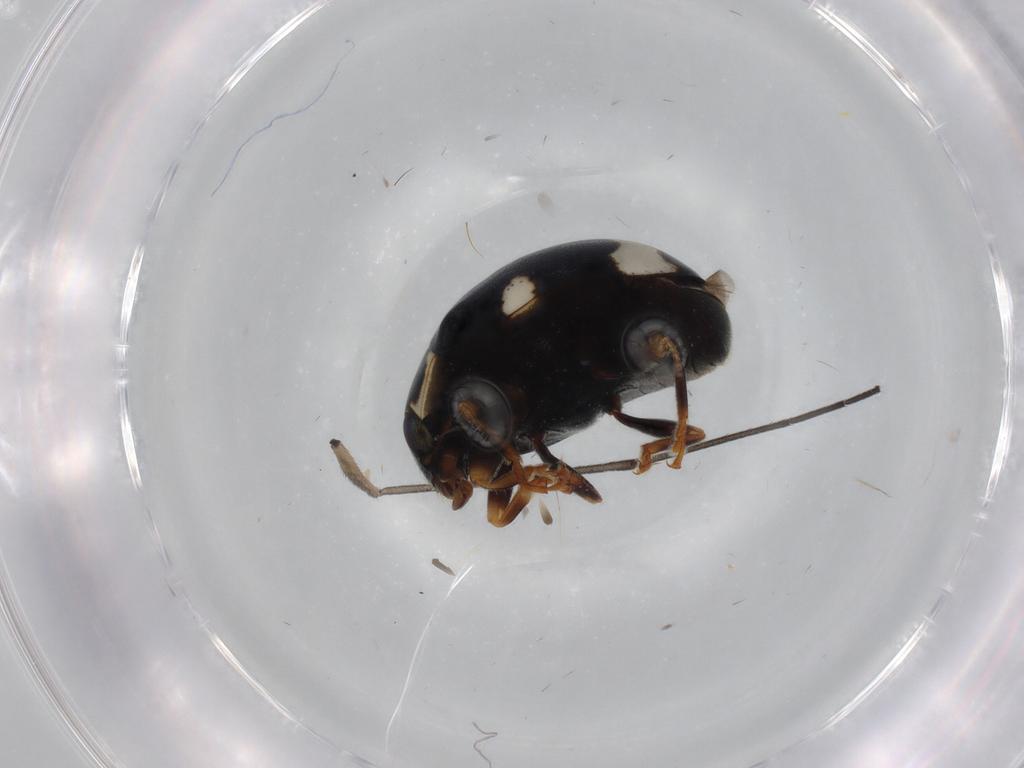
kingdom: Animalia
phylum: Arthropoda
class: Insecta
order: Coleoptera
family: Coccinellidae
